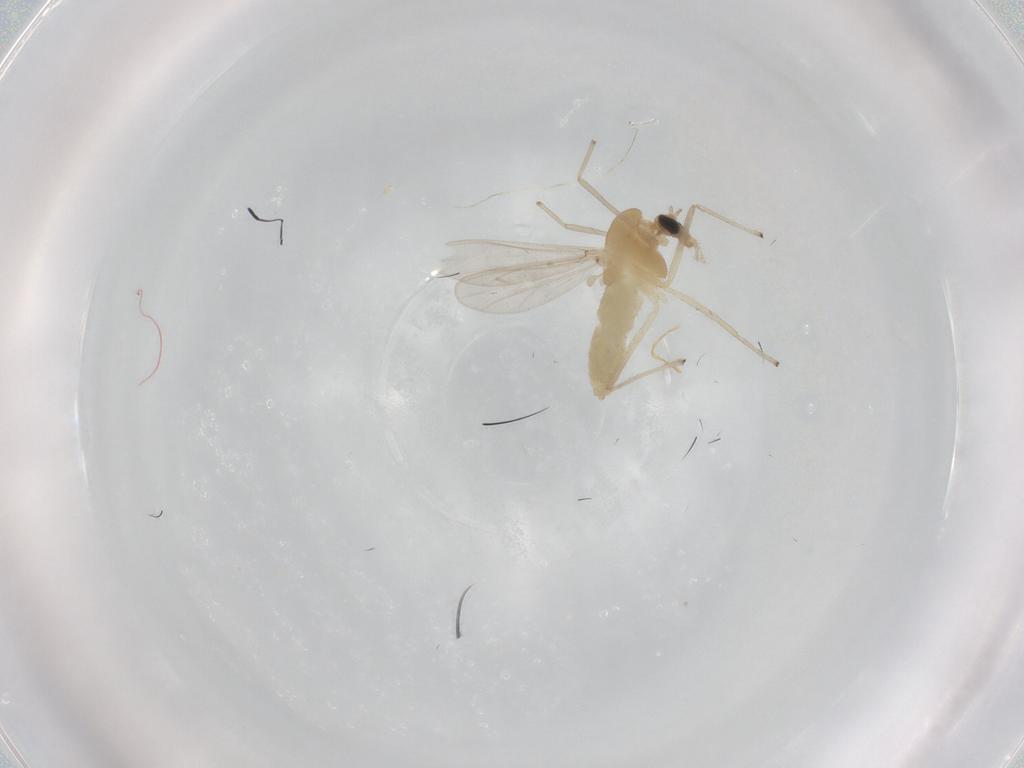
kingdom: Animalia
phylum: Arthropoda
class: Insecta
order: Diptera
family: Chironomidae
